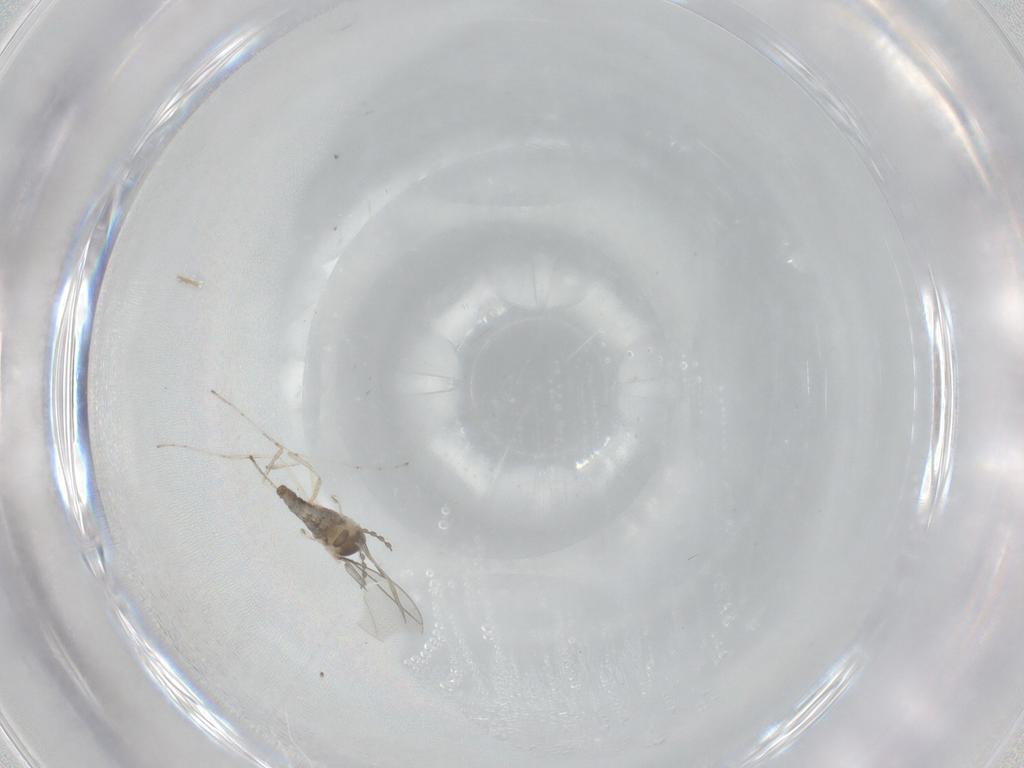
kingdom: Animalia
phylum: Arthropoda
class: Insecta
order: Diptera
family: Cecidomyiidae
